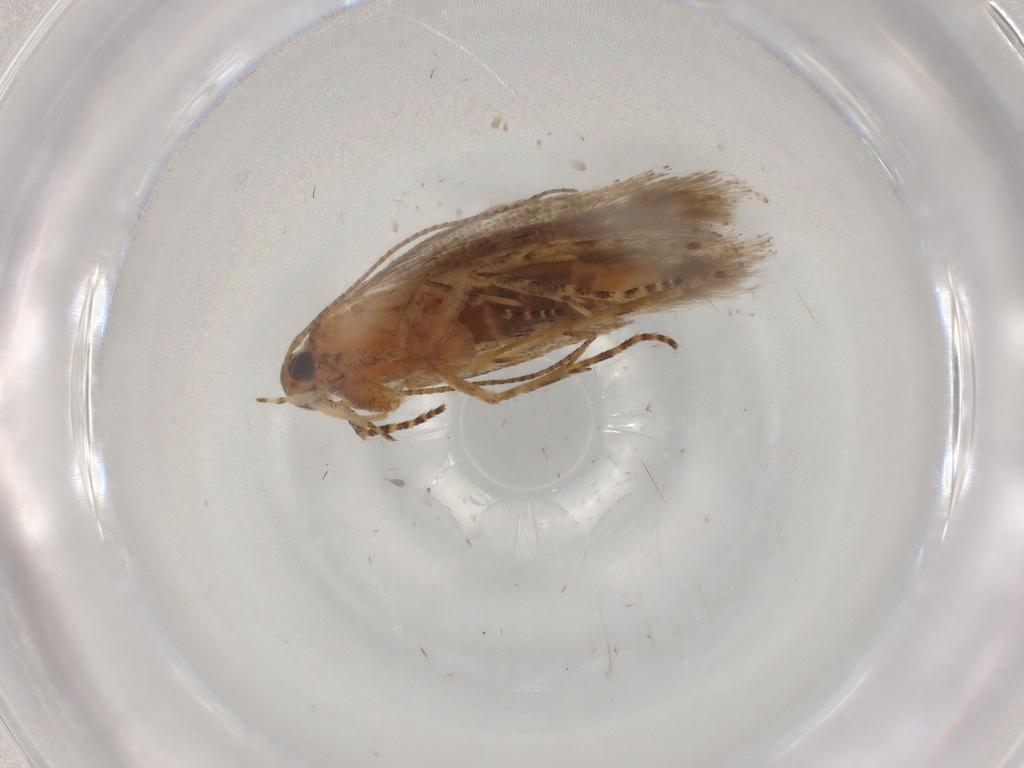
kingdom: Animalia
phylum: Arthropoda
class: Insecta
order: Lepidoptera
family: Gelechiidae
